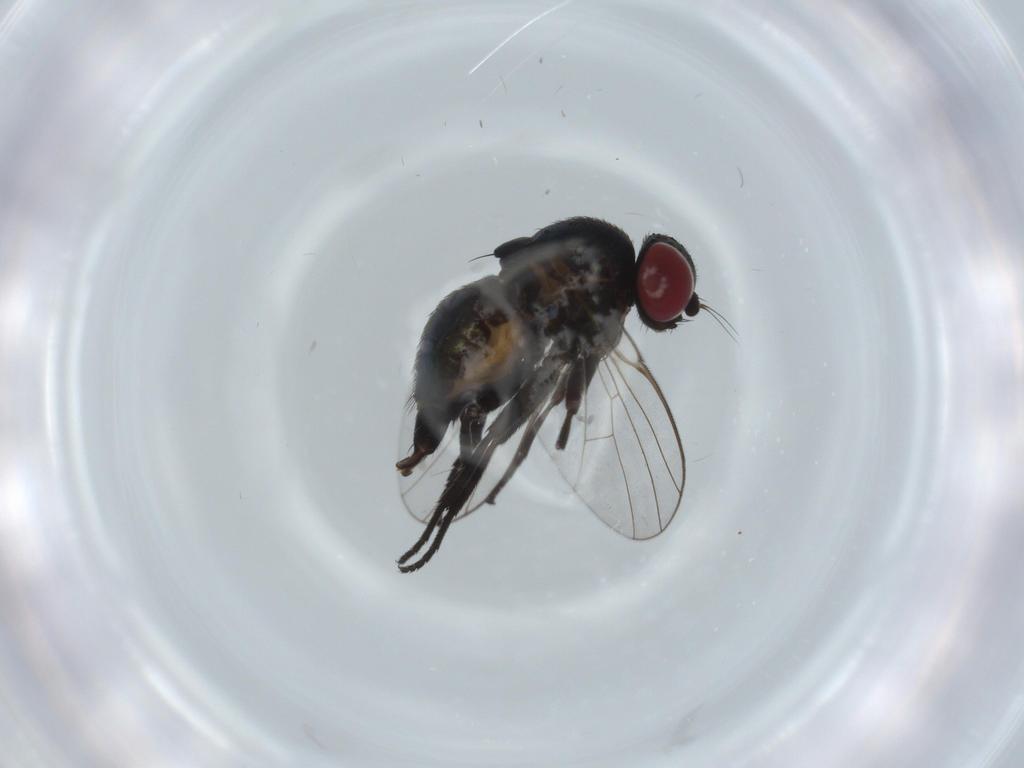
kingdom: Animalia
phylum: Arthropoda
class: Insecta
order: Diptera
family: Agromyzidae
